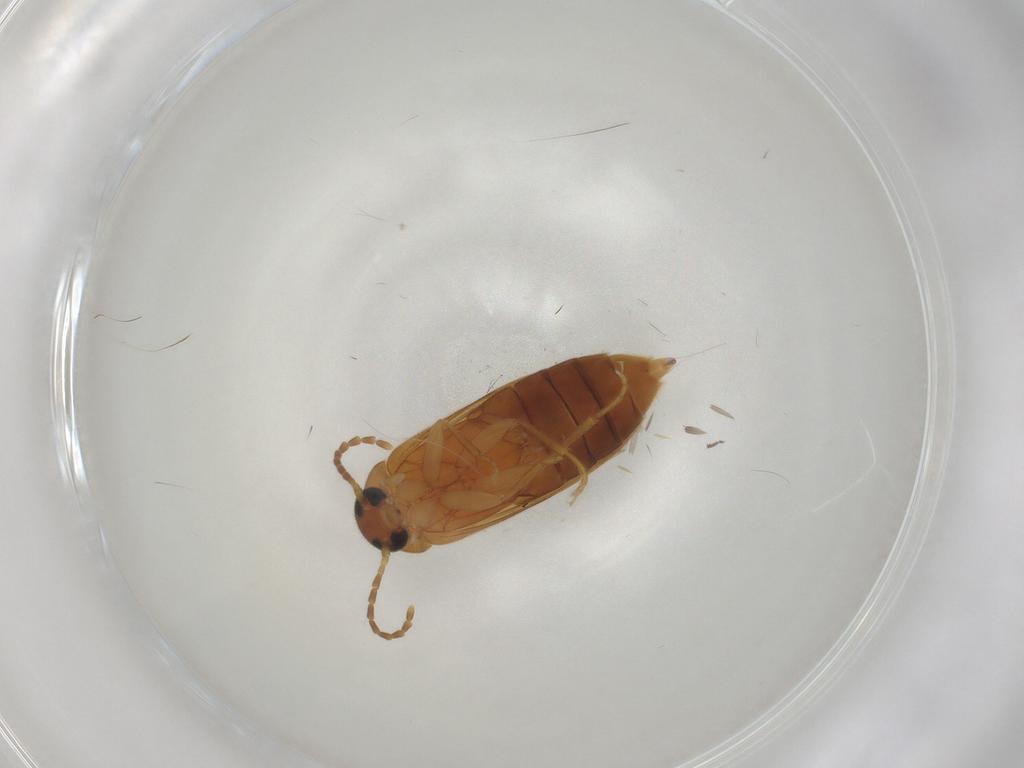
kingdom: Animalia
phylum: Arthropoda
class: Insecta
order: Coleoptera
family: Scraptiidae
